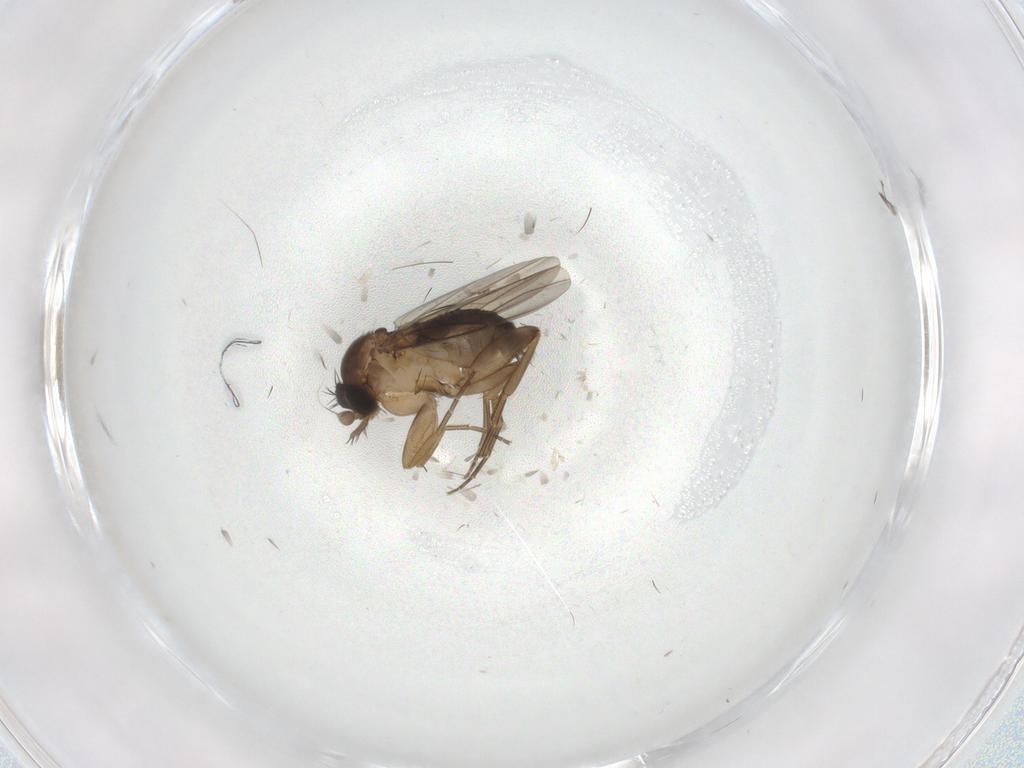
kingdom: Animalia
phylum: Arthropoda
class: Insecta
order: Diptera
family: Phoridae
